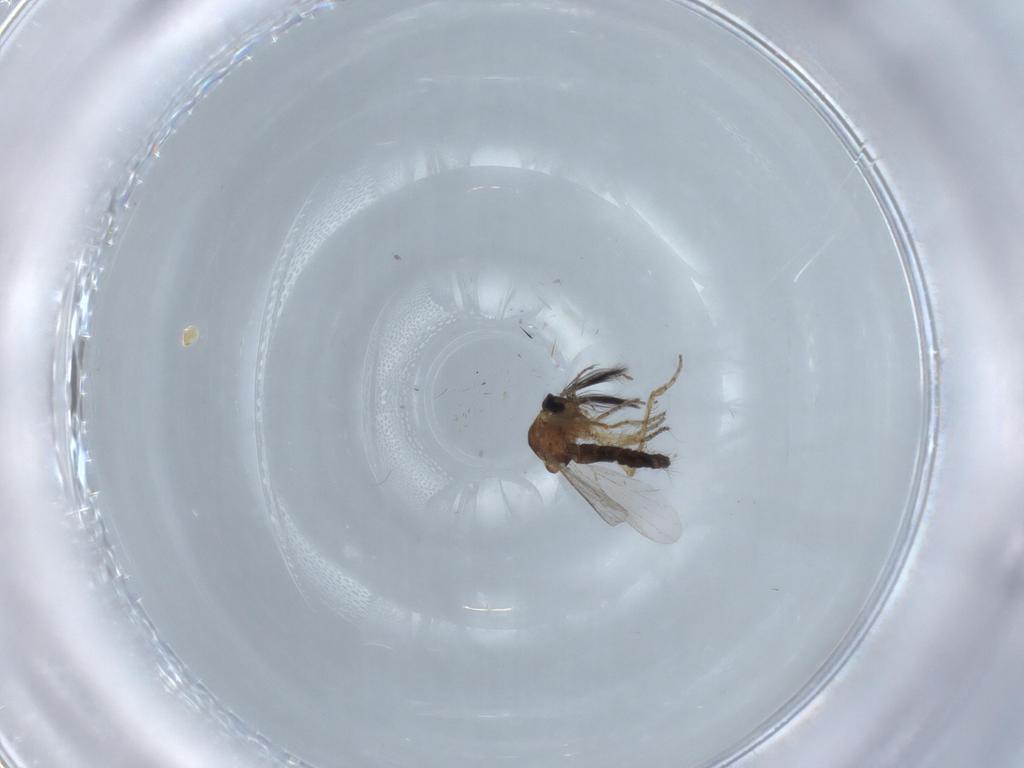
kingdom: Animalia
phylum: Arthropoda
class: Insecta
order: Diptera
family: Ceratopogonidae
